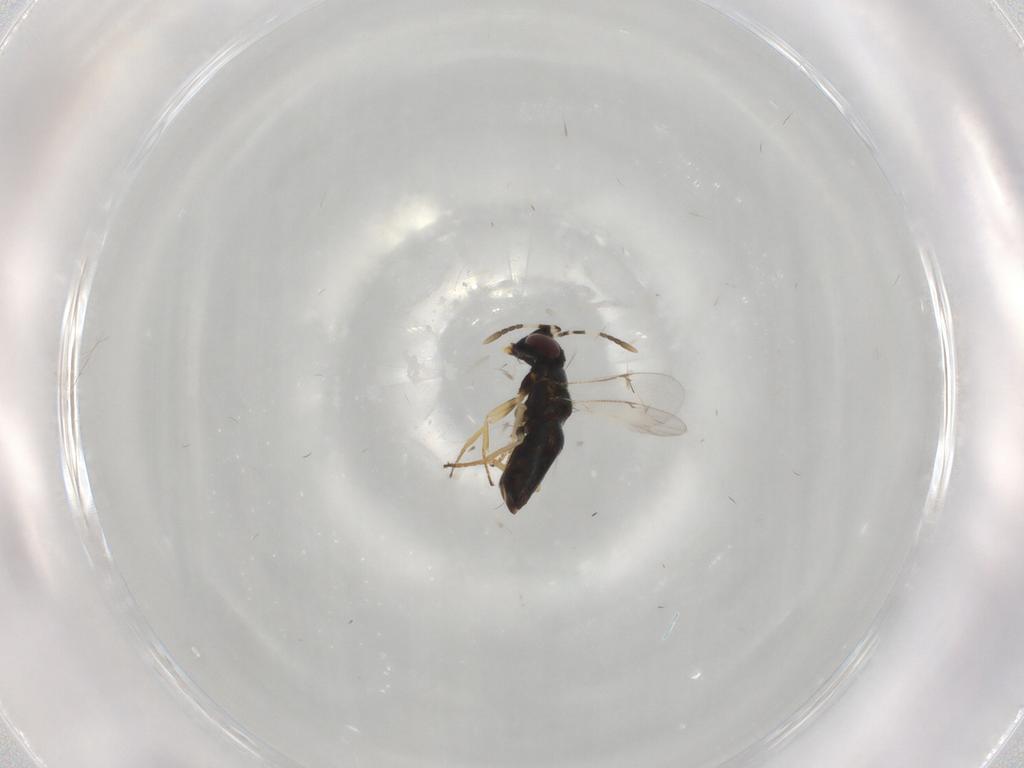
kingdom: Animalia
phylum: Arthropoda
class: Insecta
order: Hymenoptera
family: Encyrtidae
